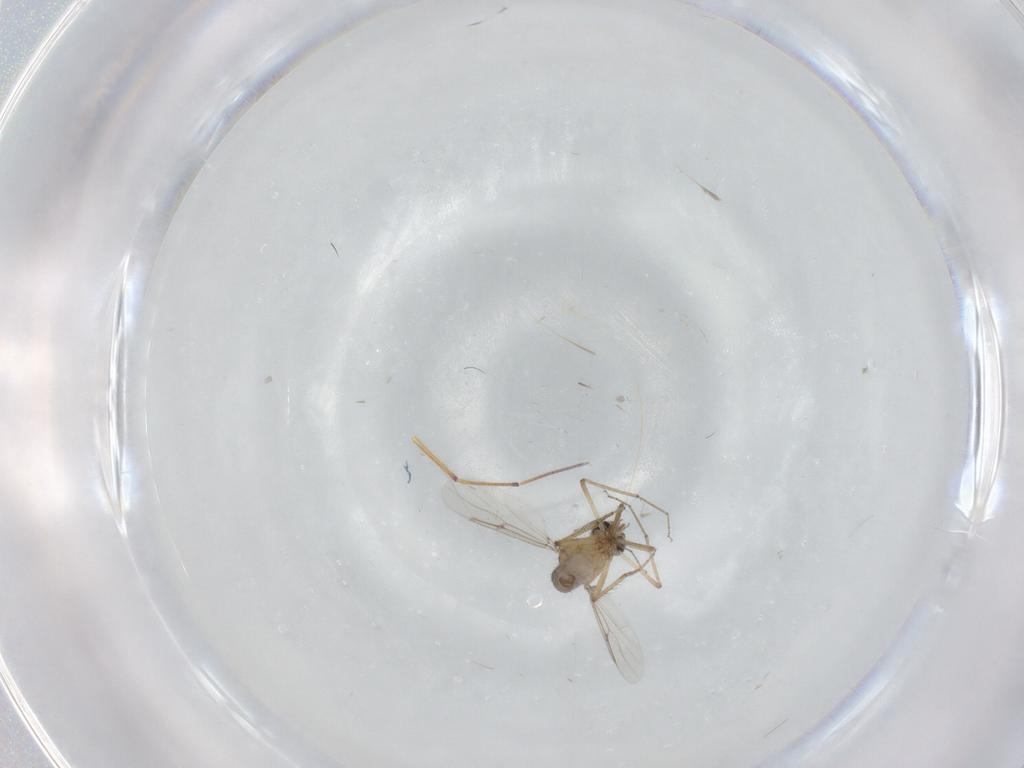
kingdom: Animalia
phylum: Arthropoda
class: Insecta
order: Diptera
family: Ceratopogonidae
